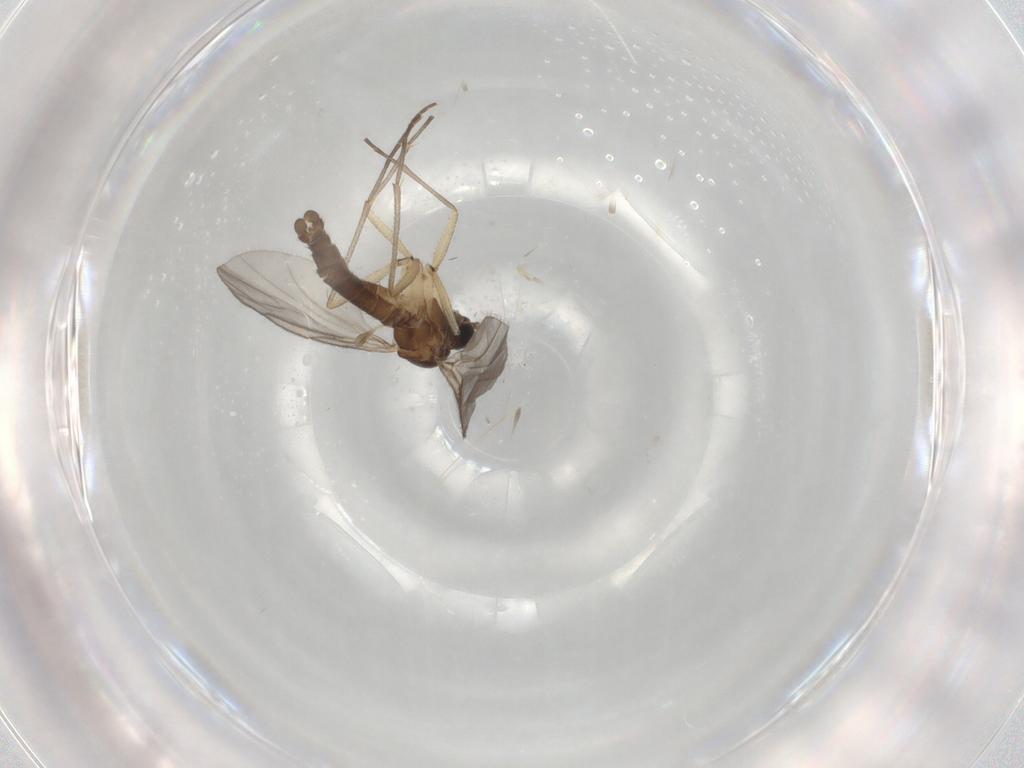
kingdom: Animalia
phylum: Arthropoda
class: Insecta
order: Diptera
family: Sciaridae
